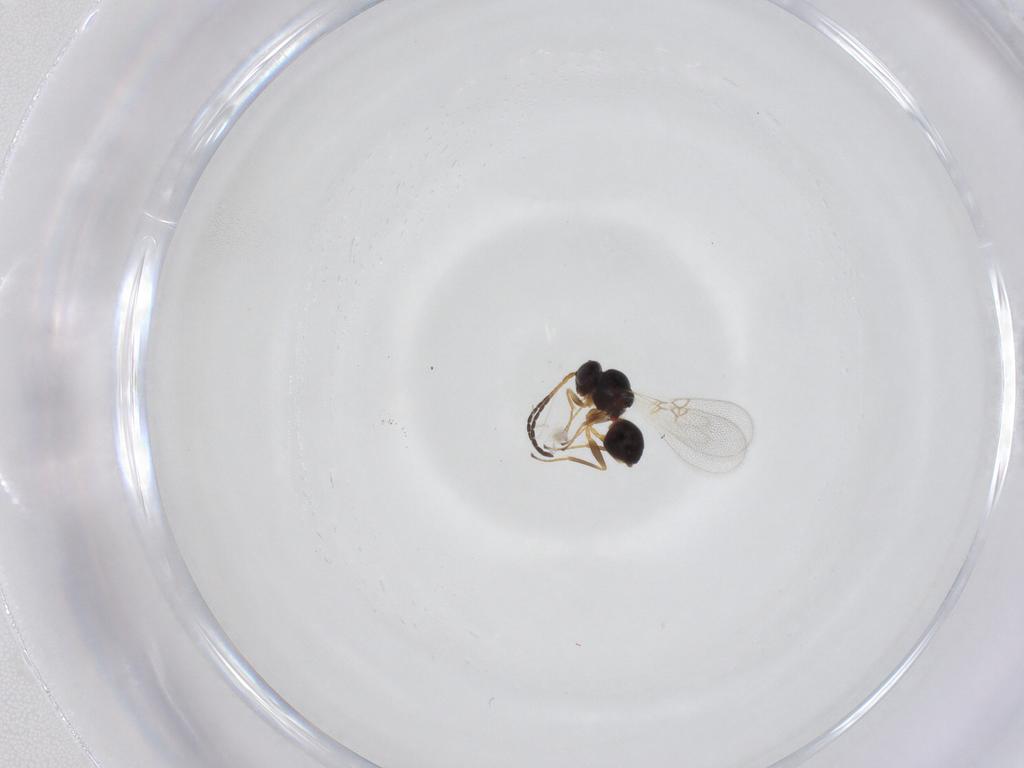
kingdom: Animalia
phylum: Arthropoda
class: Insecta
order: Hymenoptera
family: Figitidae
